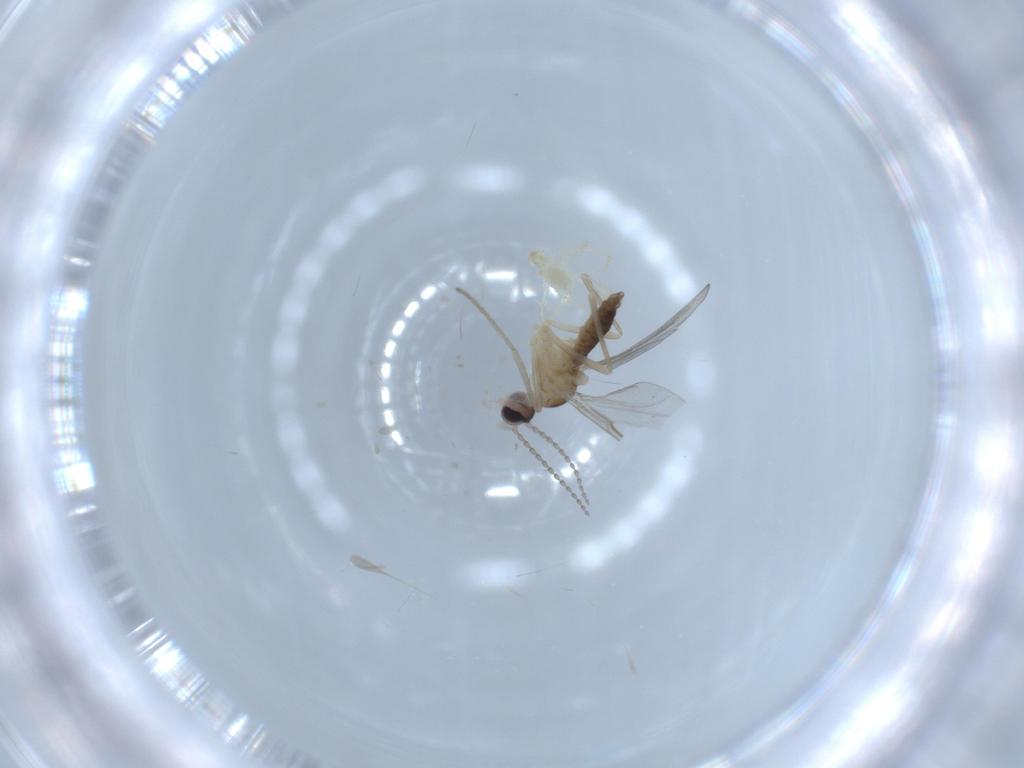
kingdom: Animalia
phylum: Arthropoda
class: Insecta
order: Diptera
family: Cecidomyiidae
